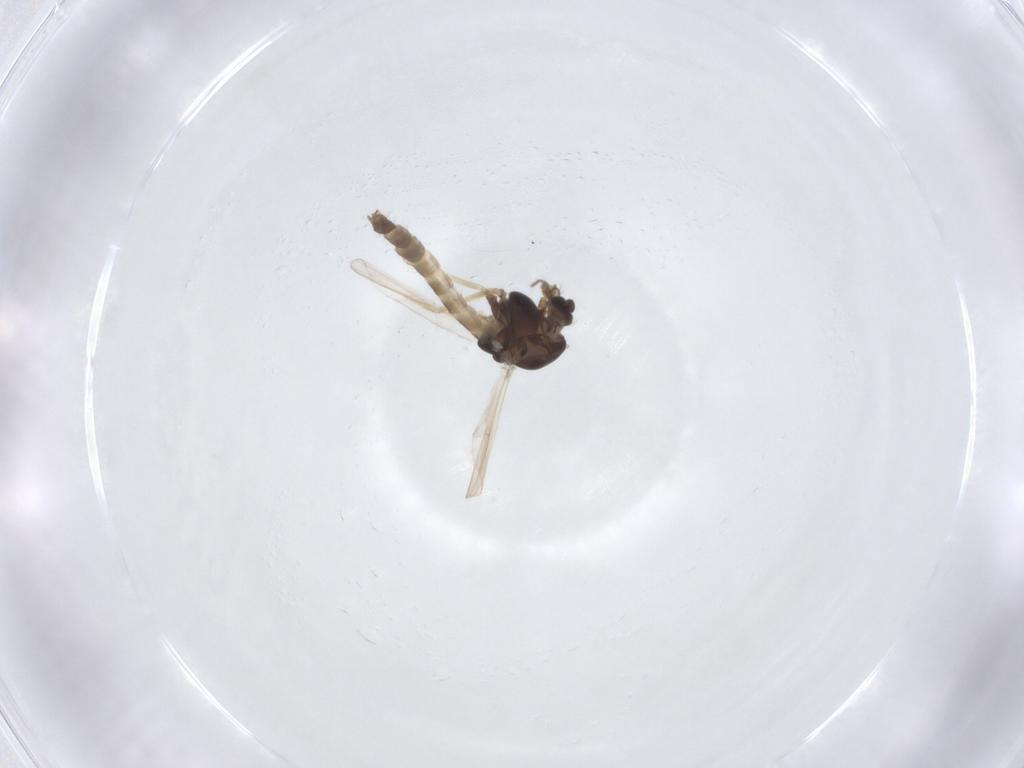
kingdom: Animalia
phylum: Arthropoda
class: Insecta
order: Diptera
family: Chironomidae
